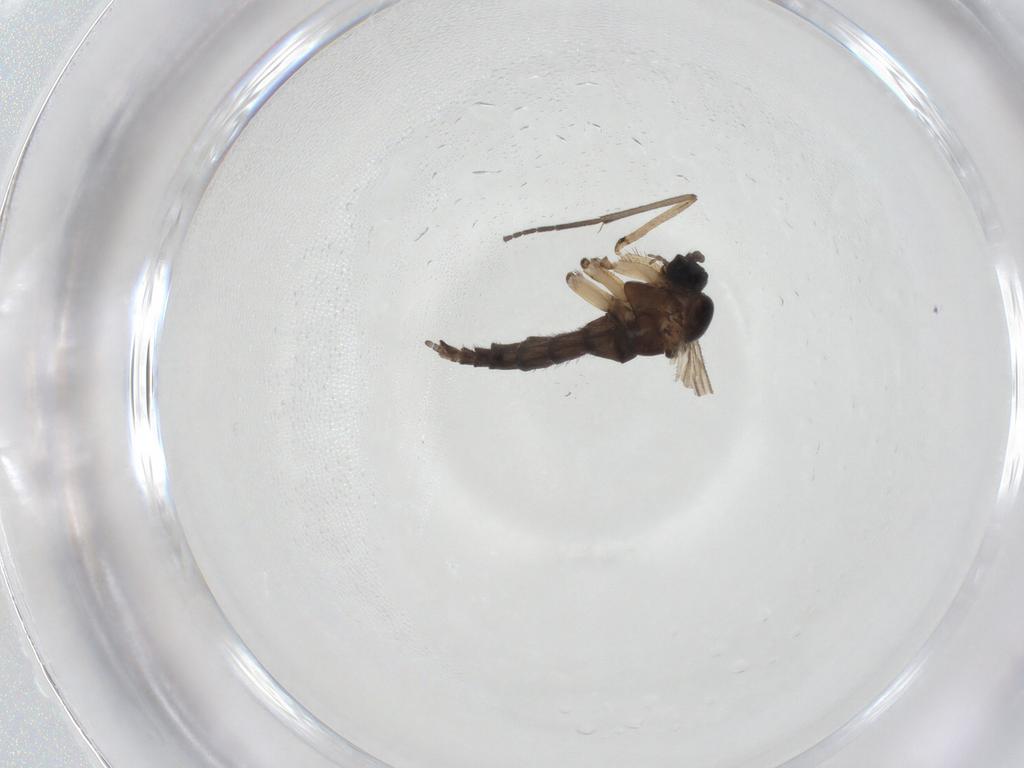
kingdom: Animalia
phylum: Arthropoda
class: Insecta
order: Diptera
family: Sciaridae
